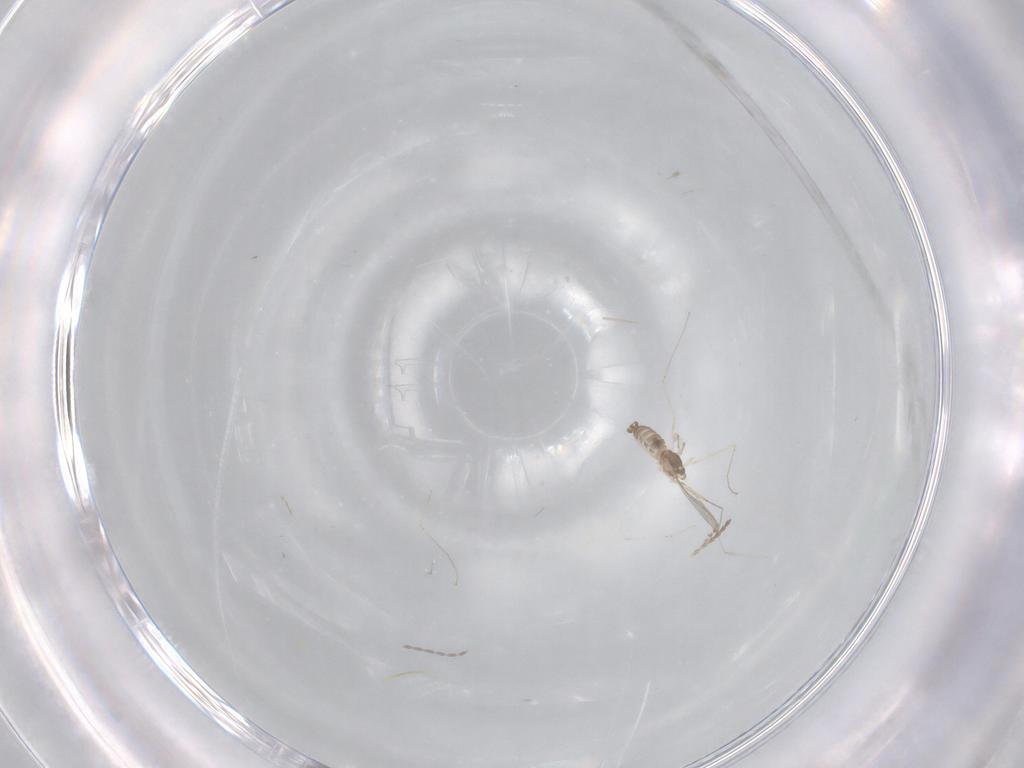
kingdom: Animalia
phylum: Arthropoda
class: Insecta
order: Diptera
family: Cecidomyiidae
